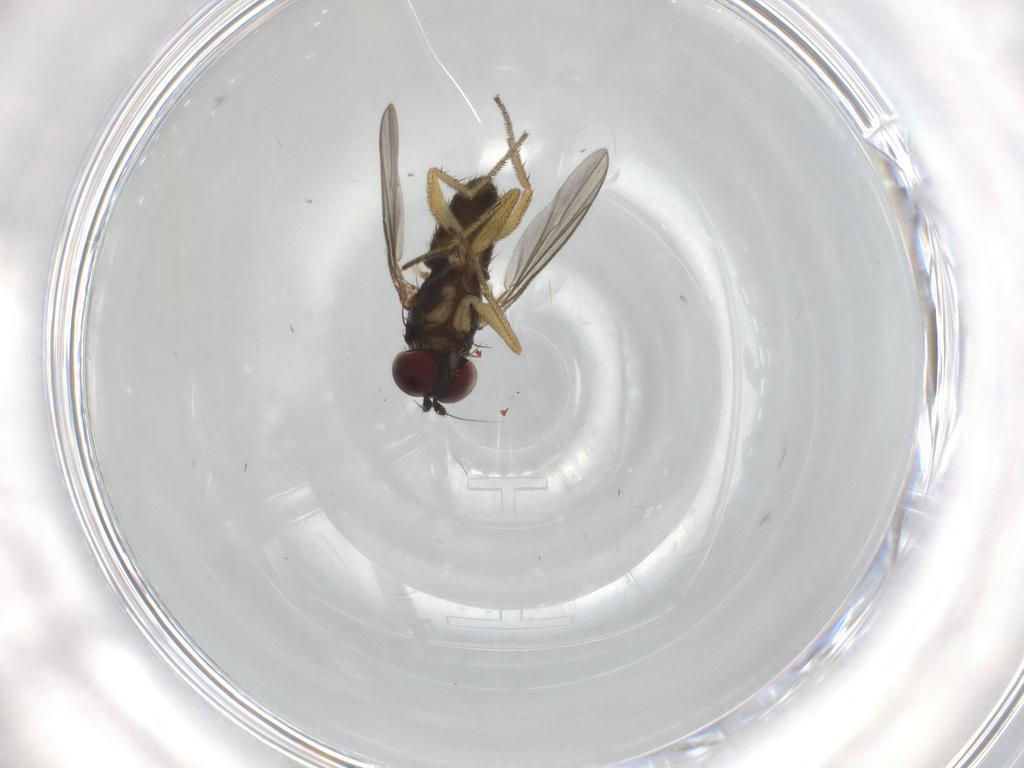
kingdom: Animalia
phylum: Arthropoda
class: Insecta
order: Diptera
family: Dolichopodidae
